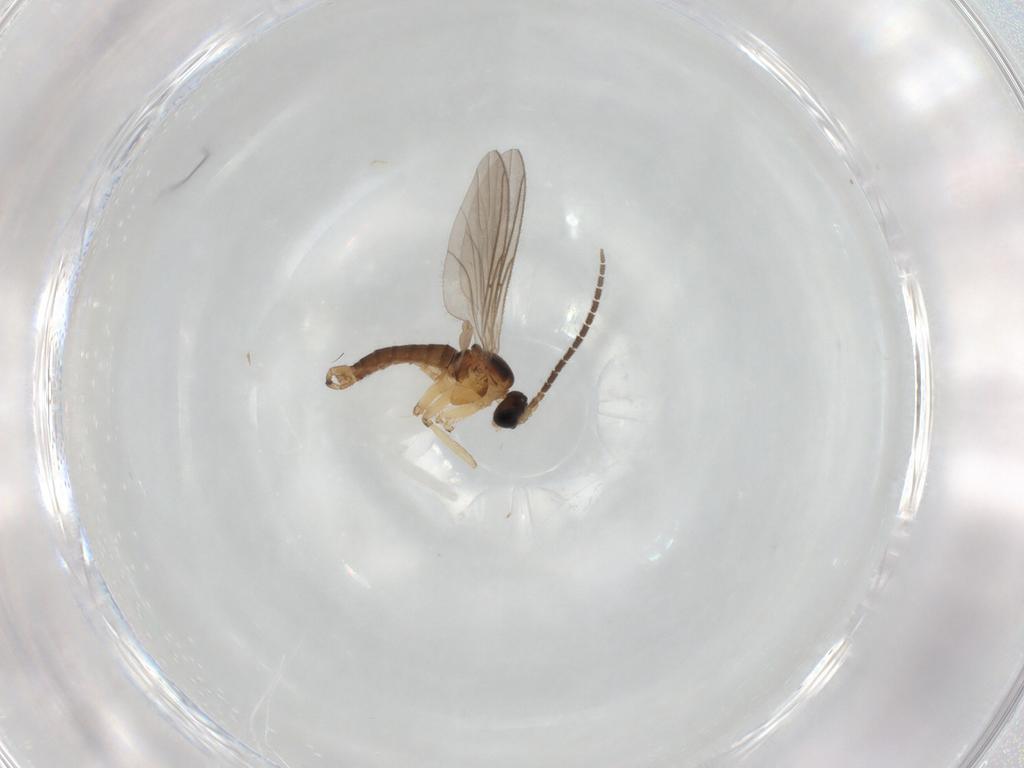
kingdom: Animalia
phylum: Arthropoda
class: Insecta
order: Diptera
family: Sciaridae
